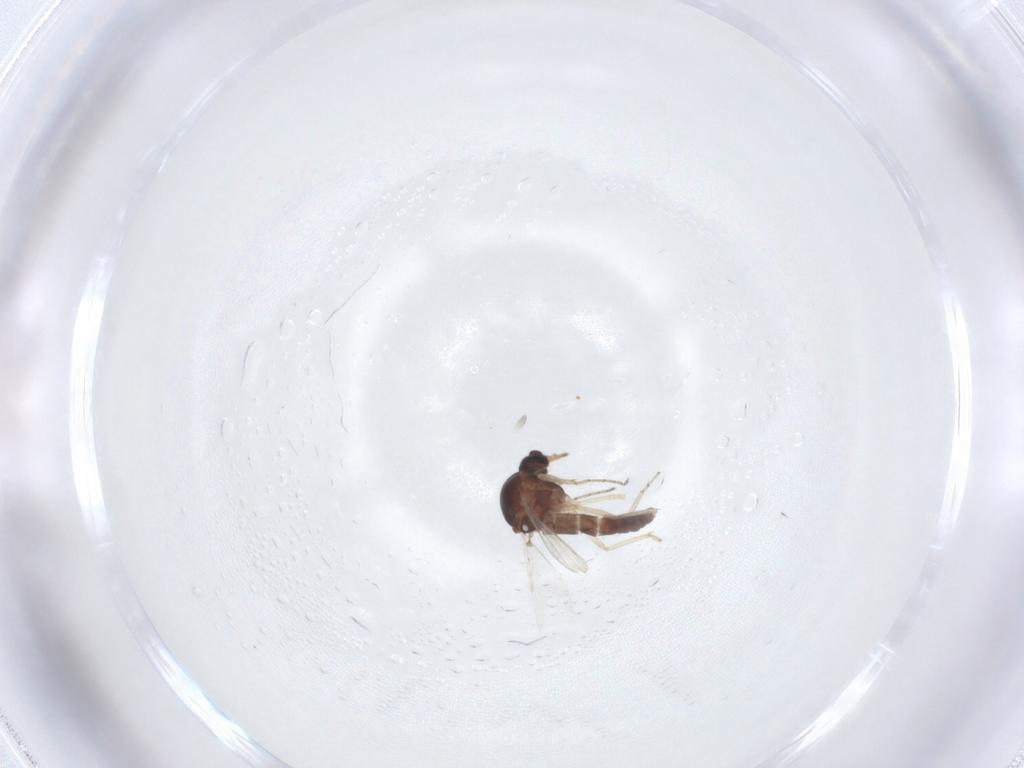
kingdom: Animalia
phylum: Arthropoda
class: Insecta
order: Diptera
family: Ceratopogonidae
